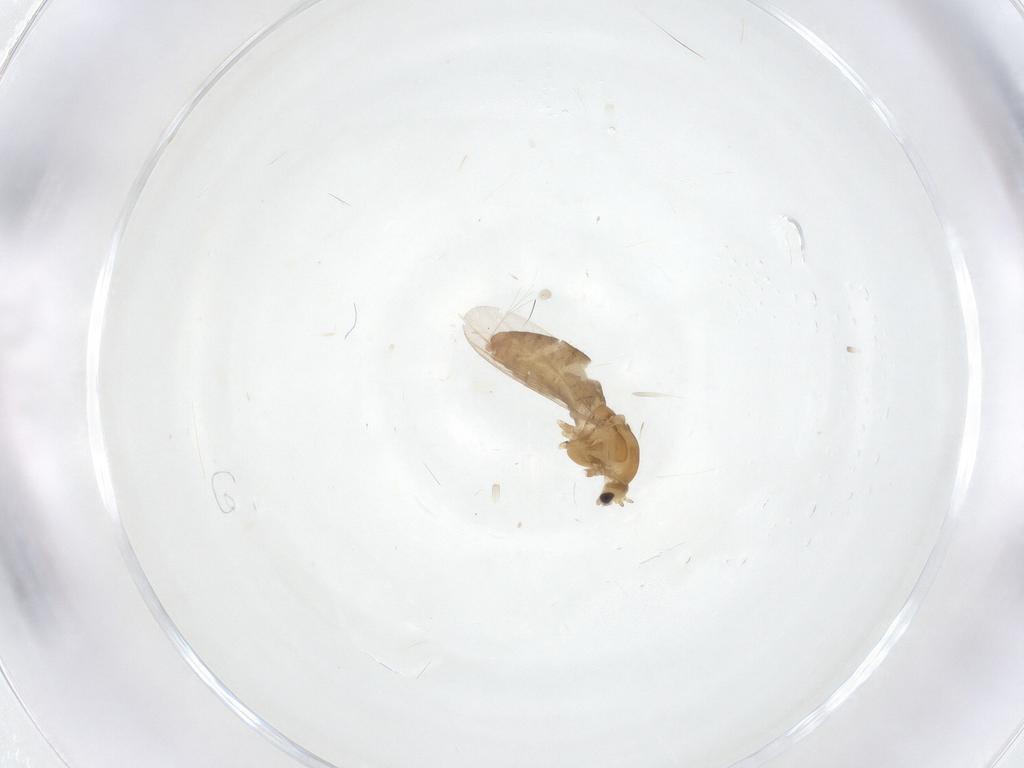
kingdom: Animalia
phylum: Arthropoda
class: Insecta
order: Diptera
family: Chironomidae
